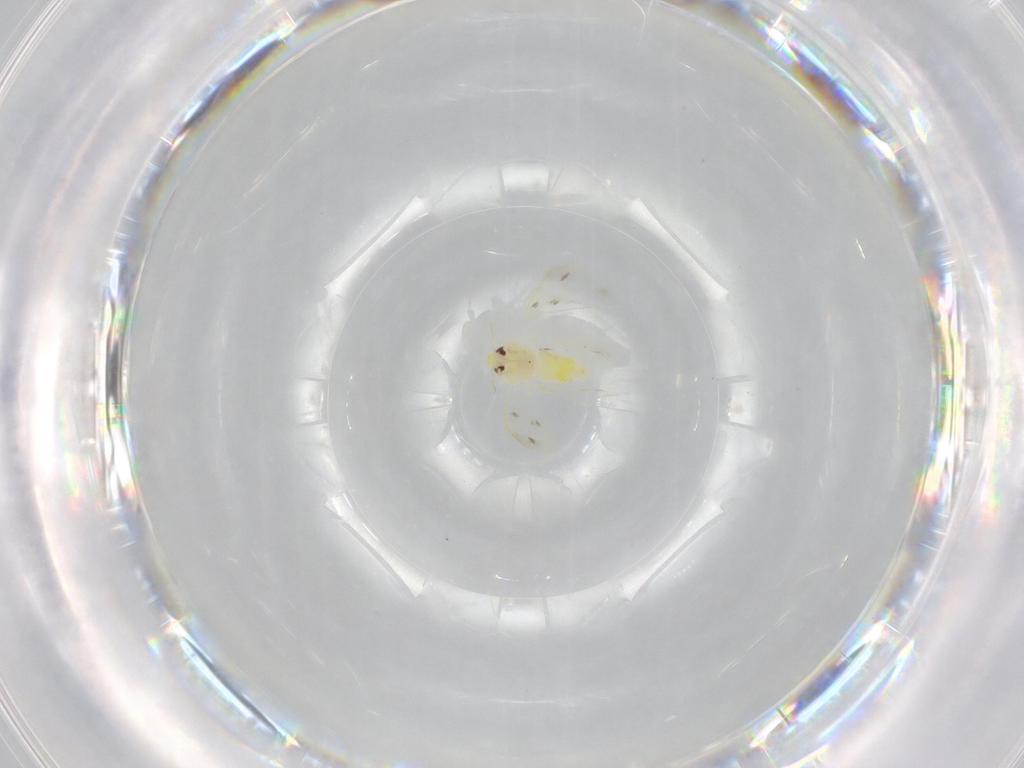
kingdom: Animalia
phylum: Arthropoda
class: Insecta
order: Hemiptera
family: Aleyrodidae
